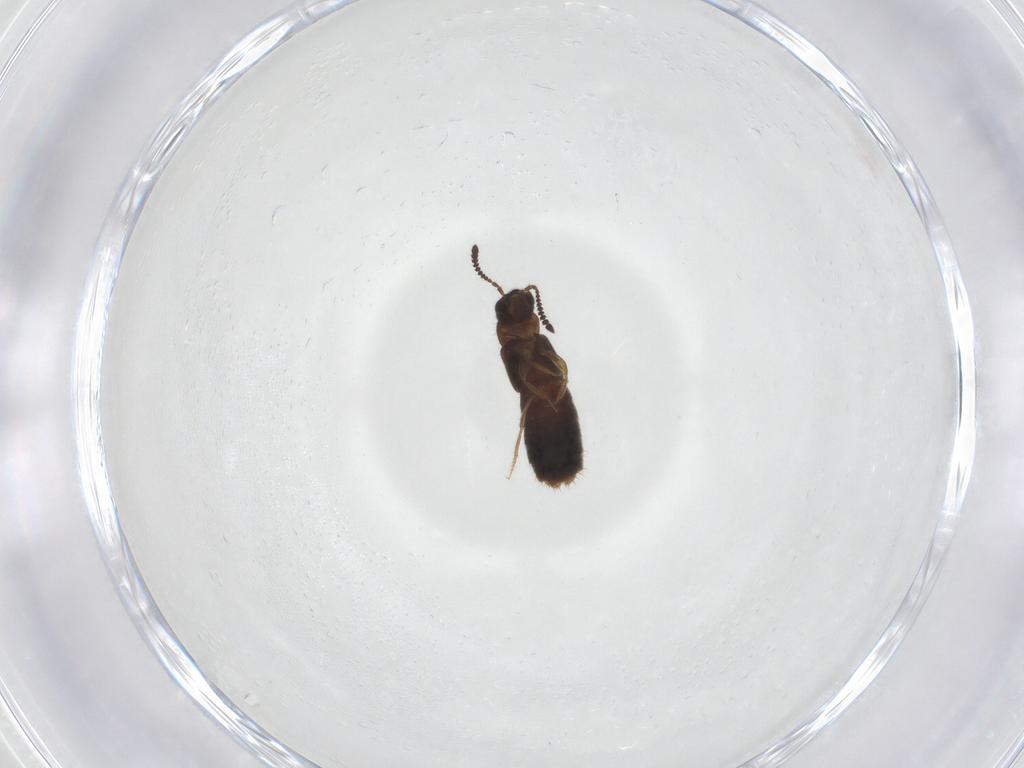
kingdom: Animalia
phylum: Arthropoda
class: Insecta
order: Coleoptera
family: Staphylinidae
